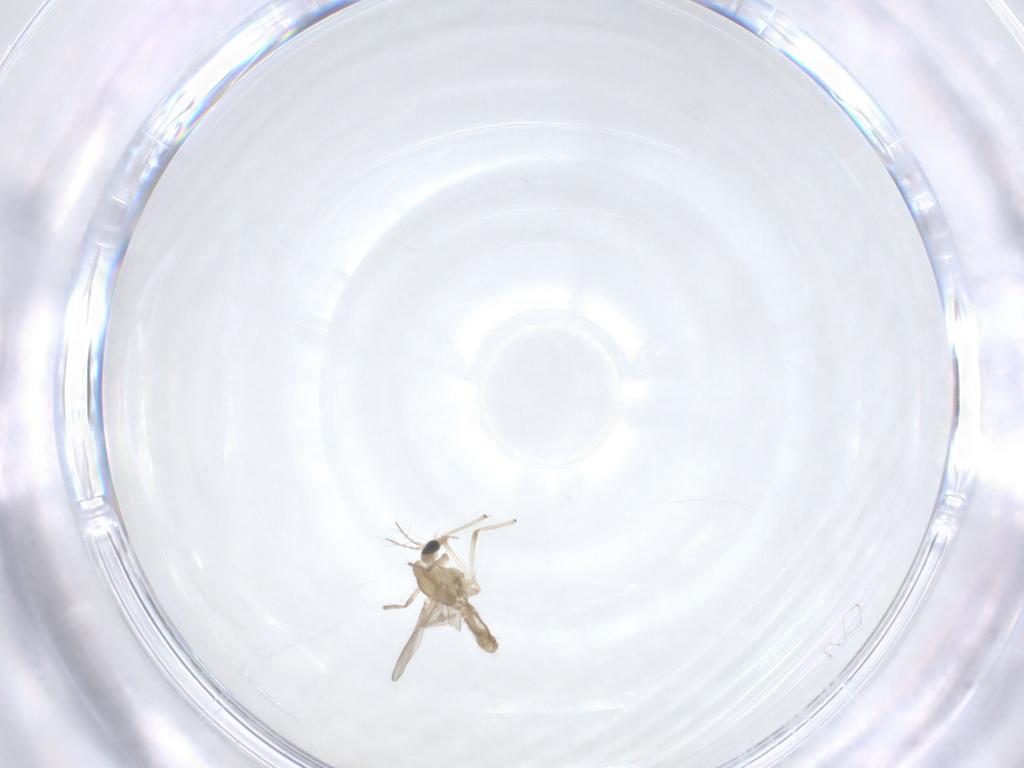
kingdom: Animalia
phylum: Arthropoda
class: Insecta
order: Diptera
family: Chironomidae
